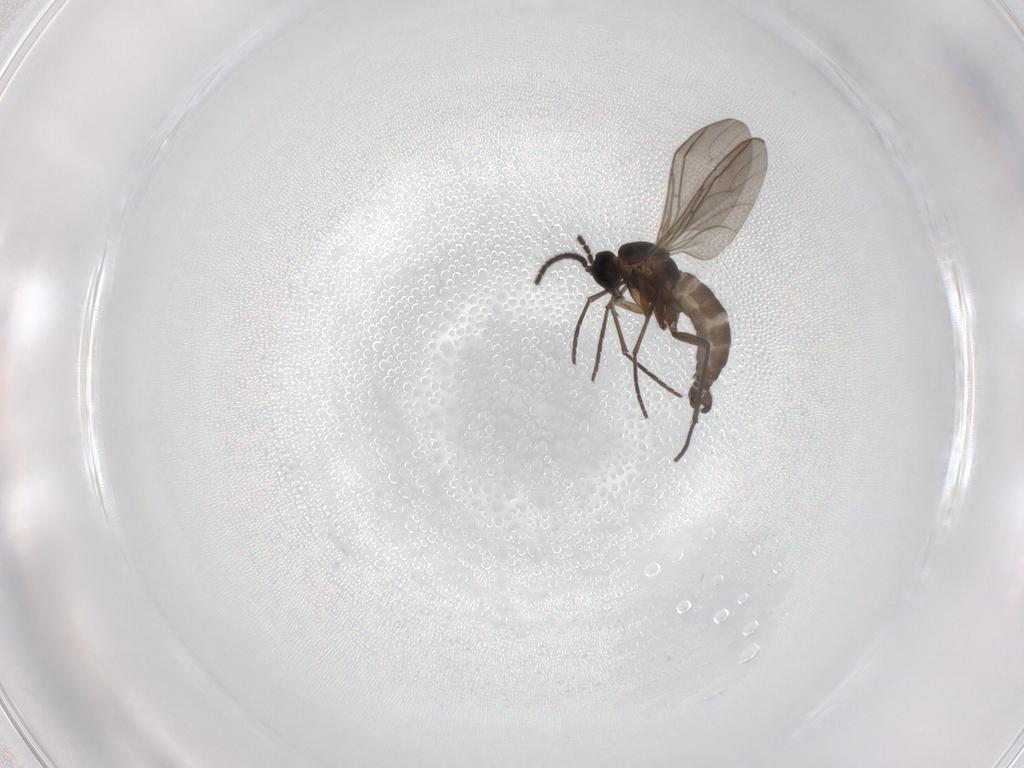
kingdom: Animalia
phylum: Arthropoda
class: Insecta
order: Diptera
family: Sciaridae
